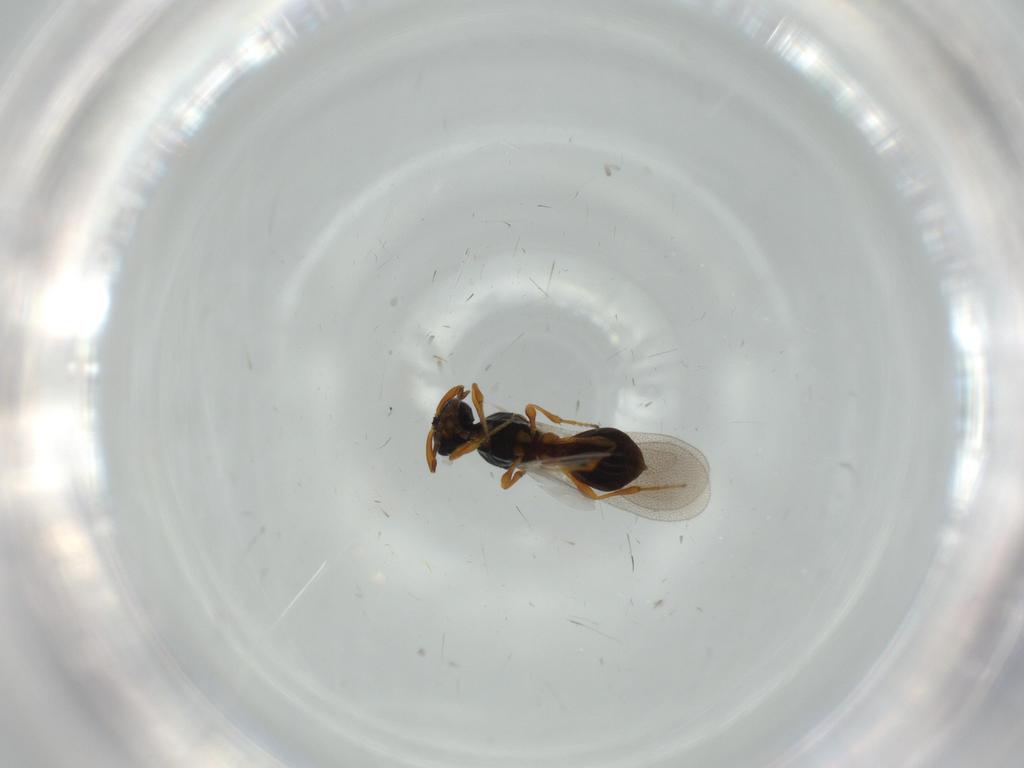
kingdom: Animalia
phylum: Arthropoda
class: Insecta
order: Diptera
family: Mythicomyiidae
